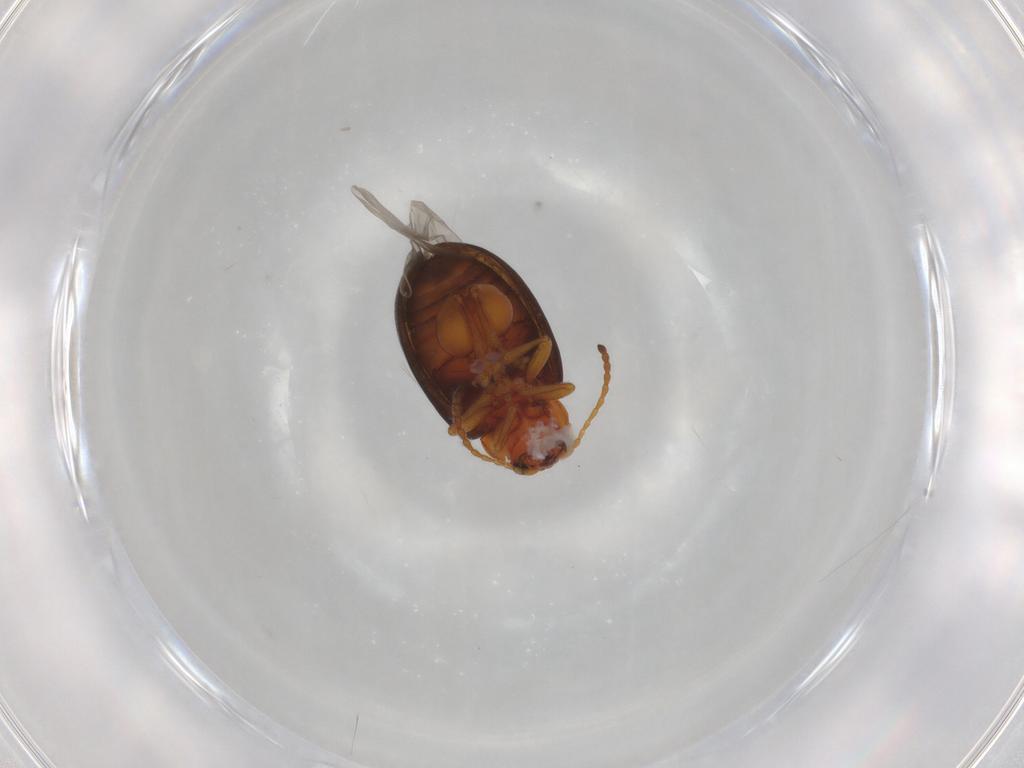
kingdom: Animalia
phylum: Arthropoda
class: Insecta
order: Coleoptera
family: Chrysomelidae
